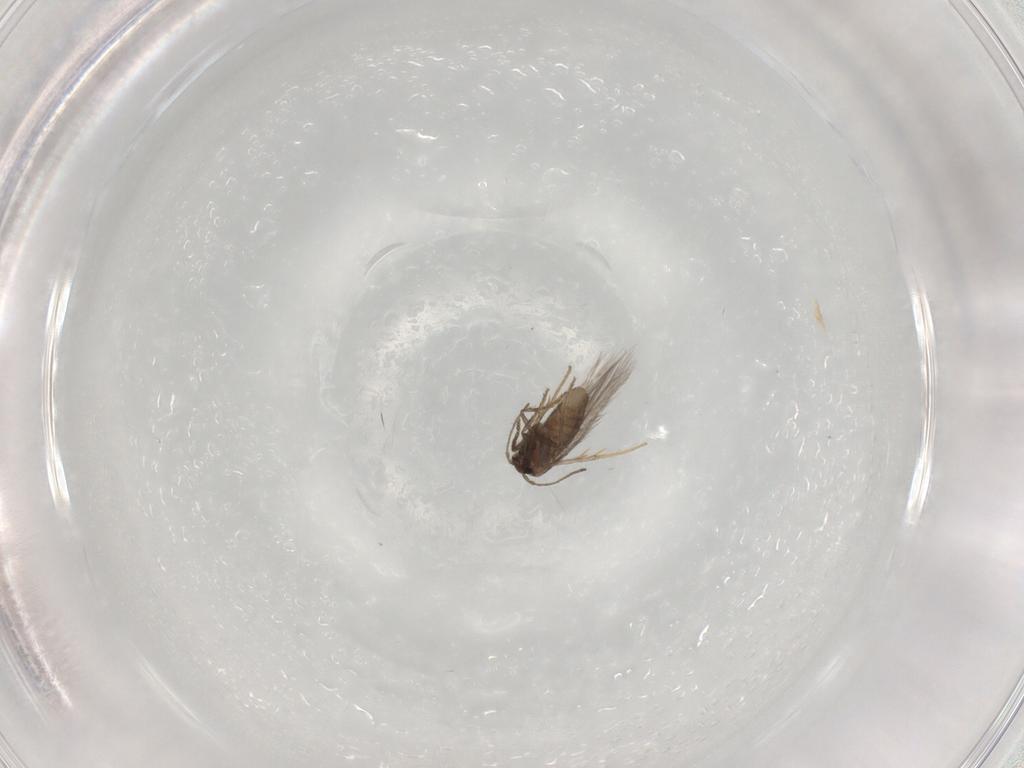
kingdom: Animalia
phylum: Arthropoda
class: Insecta
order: Lepidoptera
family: Nepticulidae
